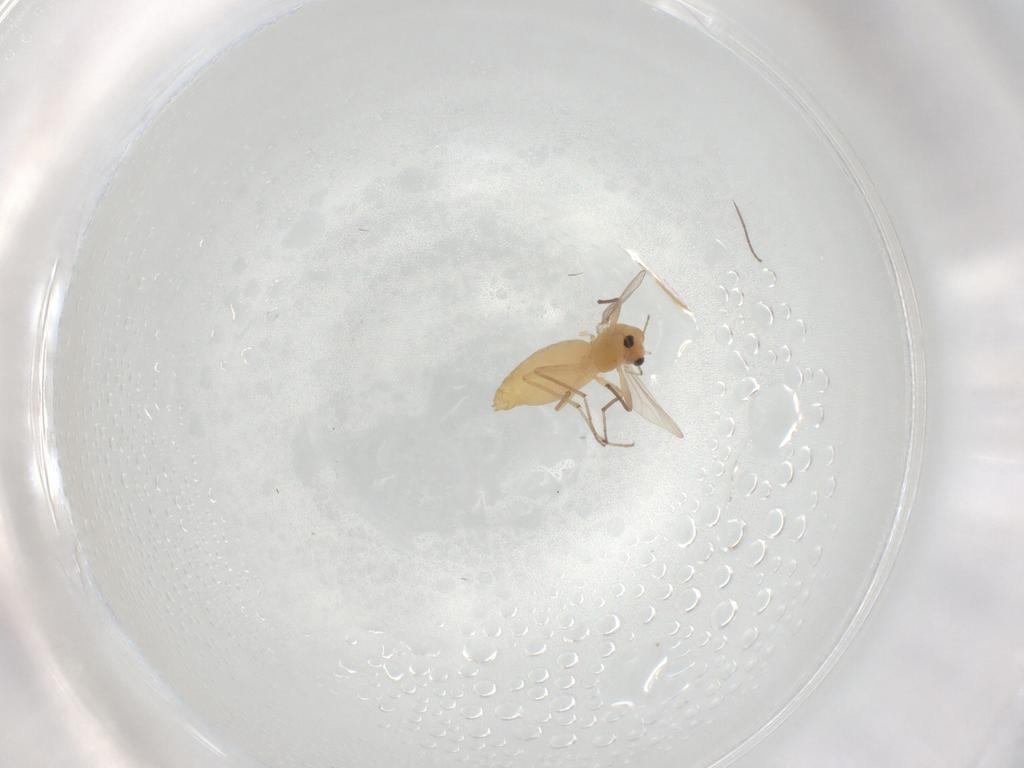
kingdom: Animalia
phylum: Arthropoda
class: Insecta
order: Diptera
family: Chironomidae
